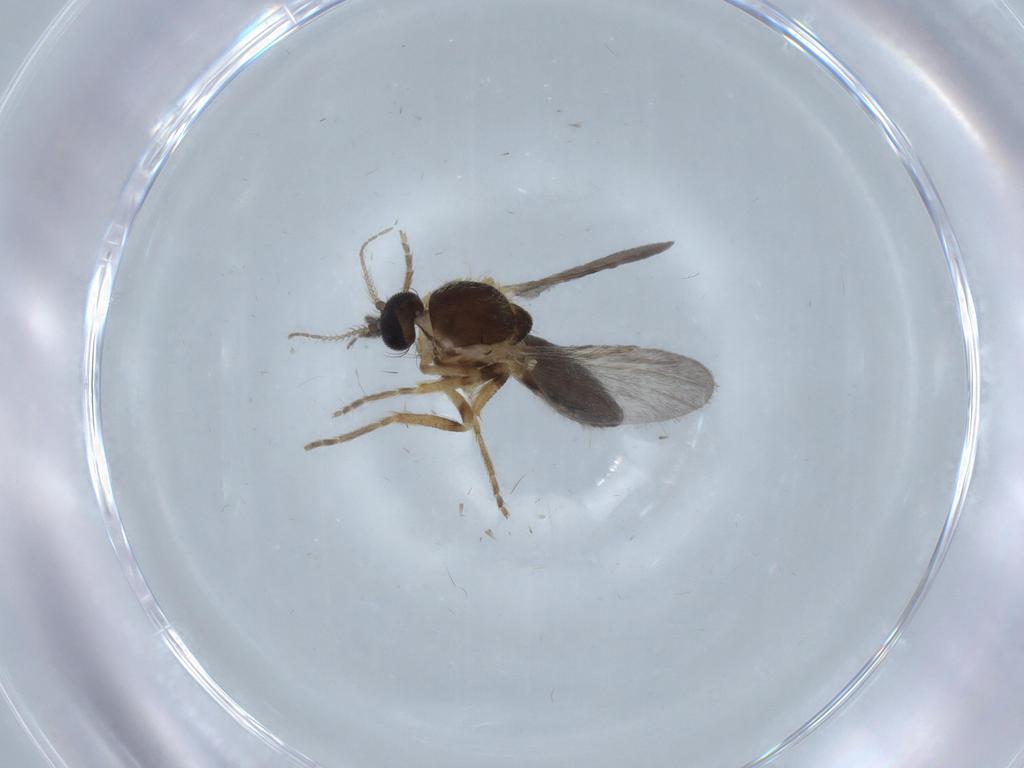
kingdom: Animalia
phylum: Arthropoda
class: Insecta
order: Diptera
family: Ceratopogonidae
